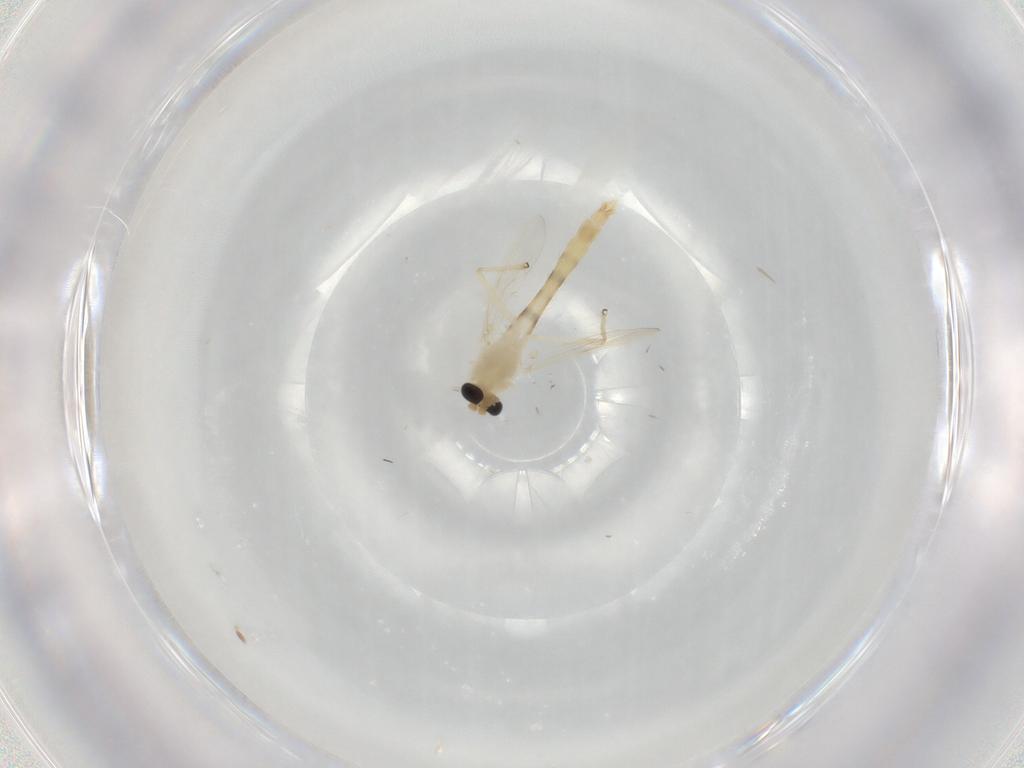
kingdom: Animalia
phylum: Arthropoda
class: Insecta
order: Diptera
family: Chironomidae
